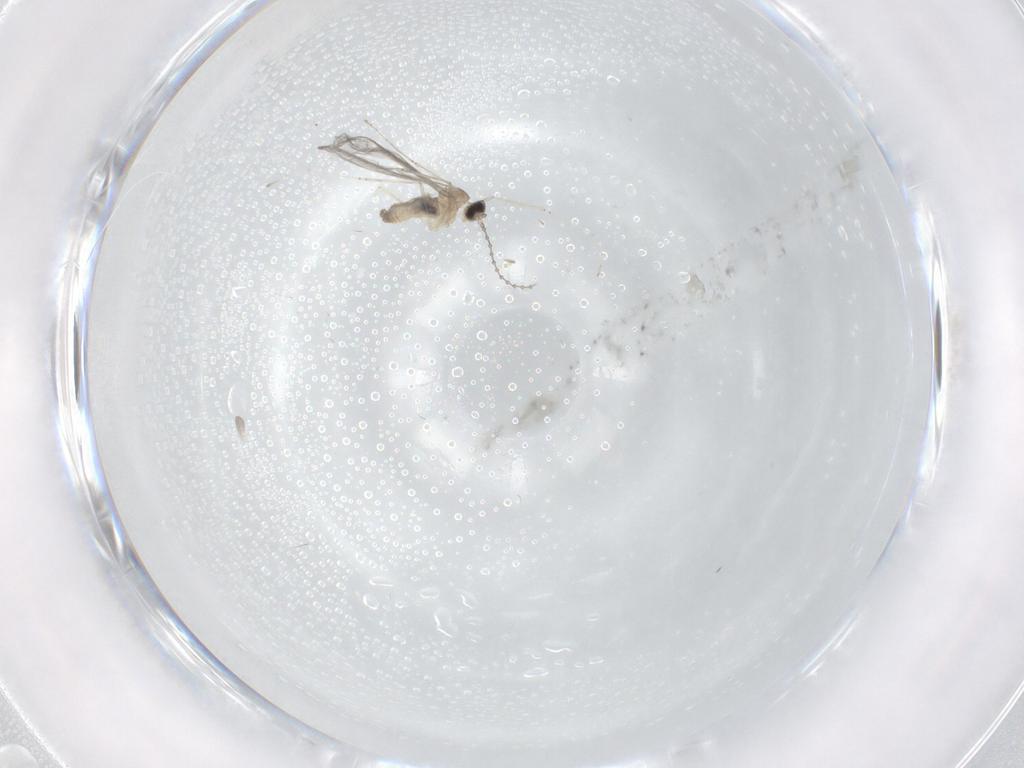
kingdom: Animalia
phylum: Arthropoda
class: Insecta
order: Diptera
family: Cecidomyiidae
